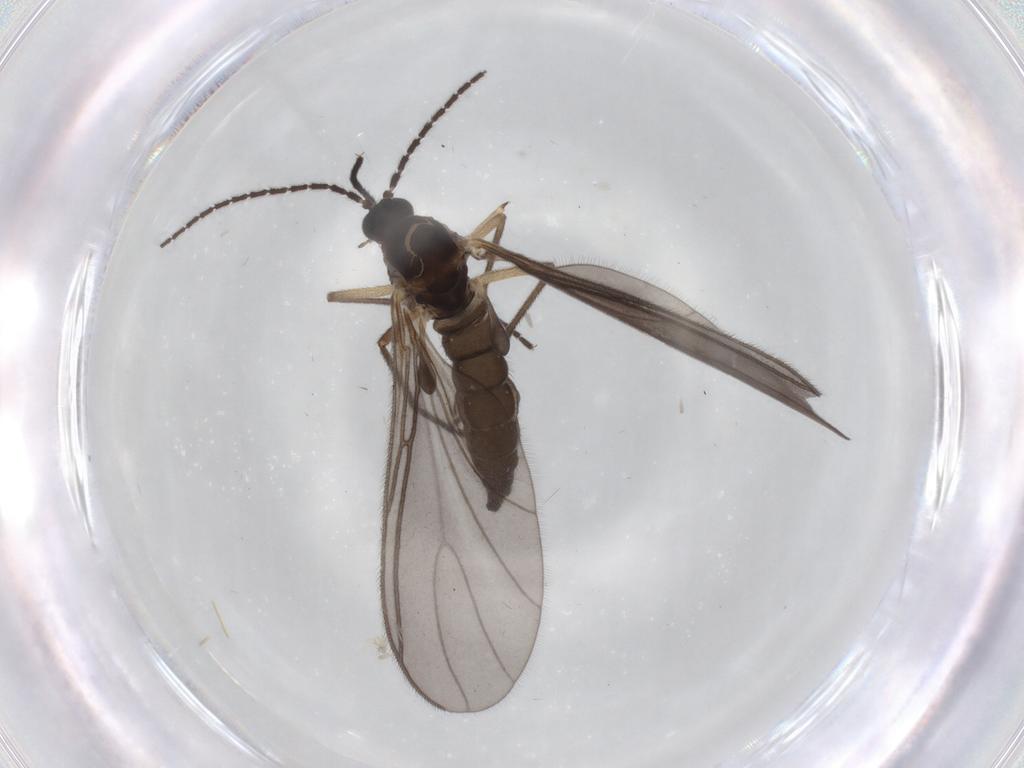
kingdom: Animalia
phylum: Arthropoda
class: Insecta
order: Diptera
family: Sciaridae
